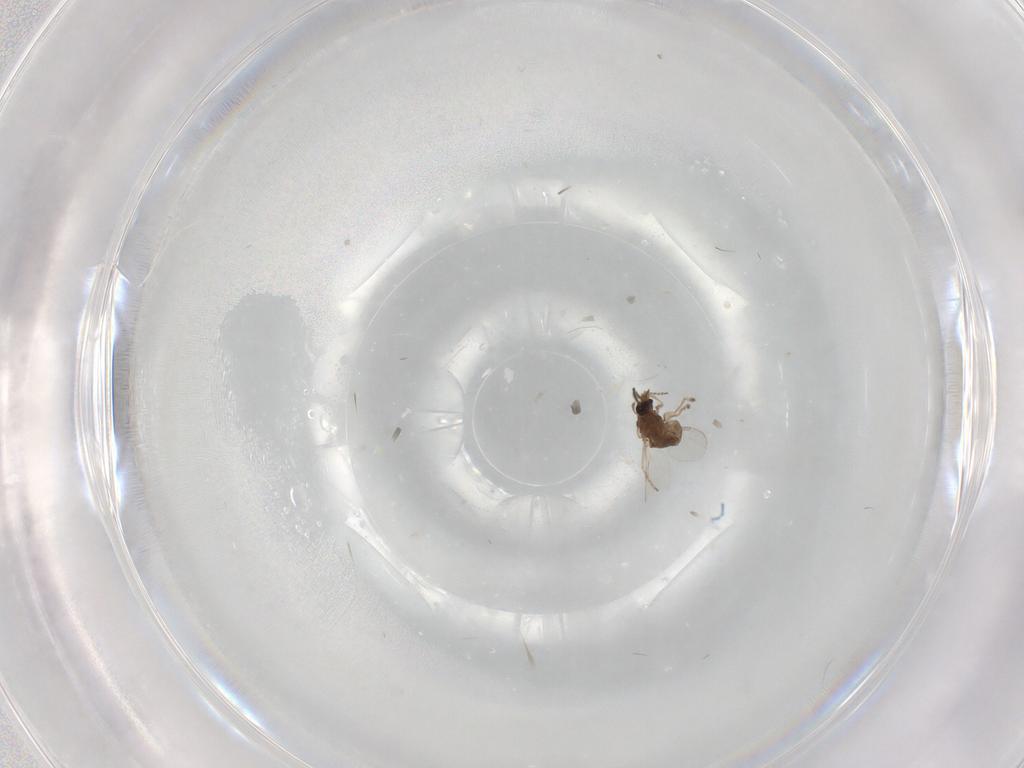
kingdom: Animalia
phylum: Arthropoda
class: Insecta
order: Diptera
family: Ceratopogonidae
